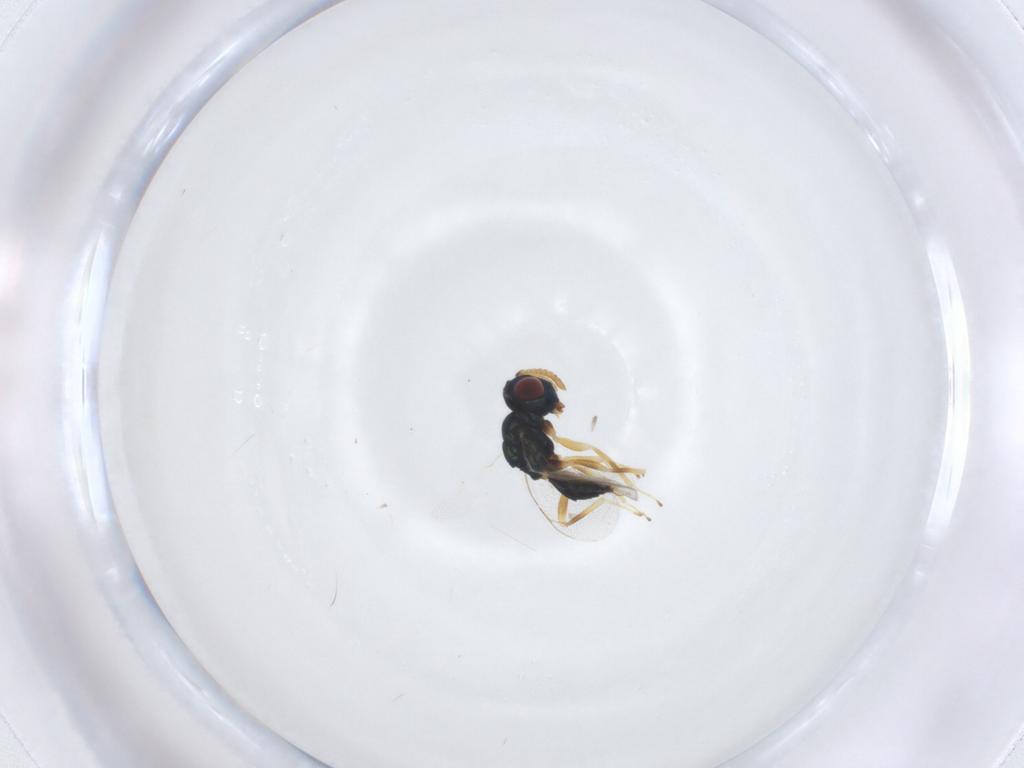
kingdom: Animalia
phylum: Arthropoda
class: Insecta
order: Hymenoptera
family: Pteromalidae
